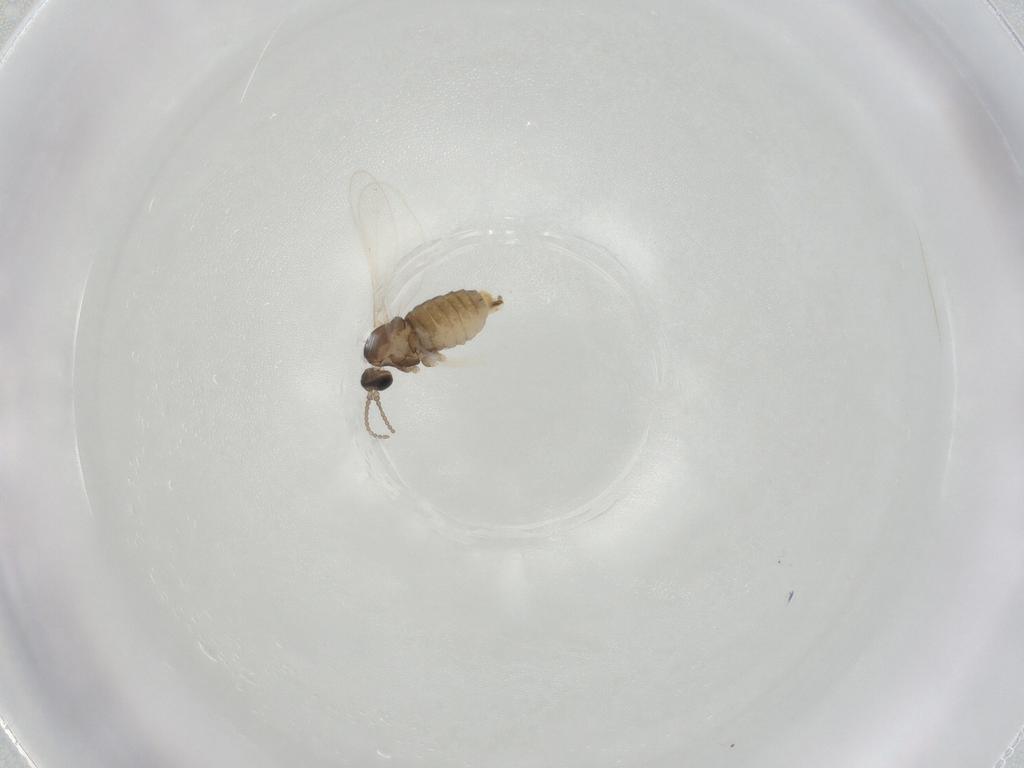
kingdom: Animalia
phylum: Arthropoda
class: Insecta
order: Diptera
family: Cecidomyiidae
